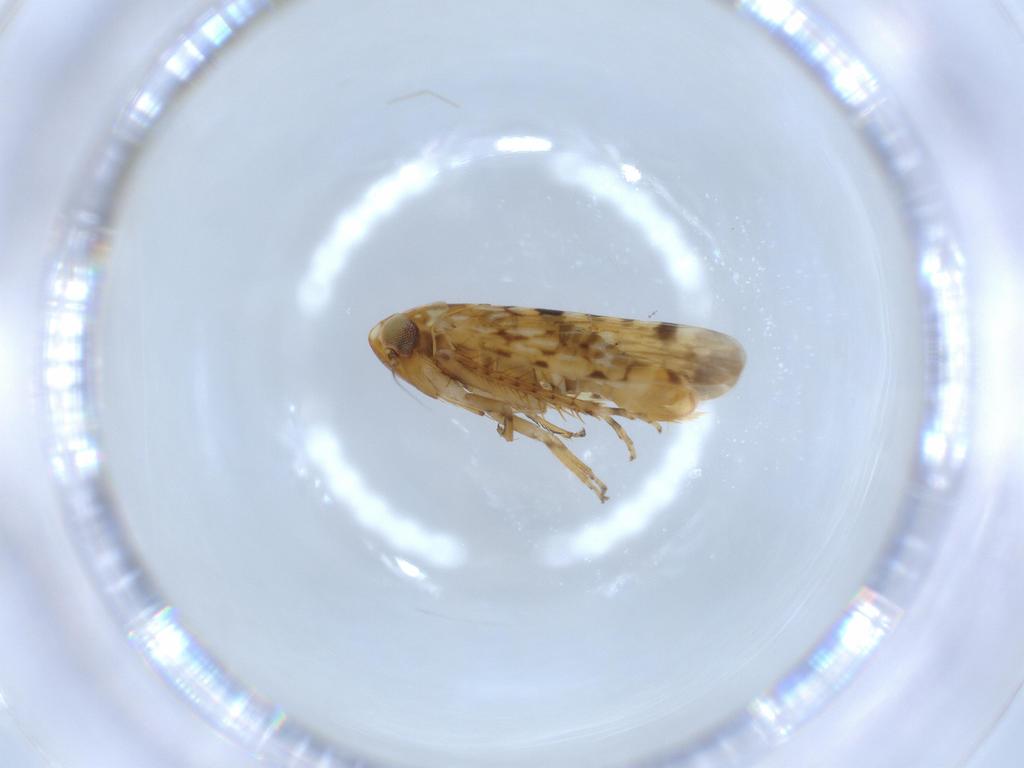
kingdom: Animalia
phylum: Arthropoda
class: Insecta
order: Hemiptera
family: Cicadellidae
